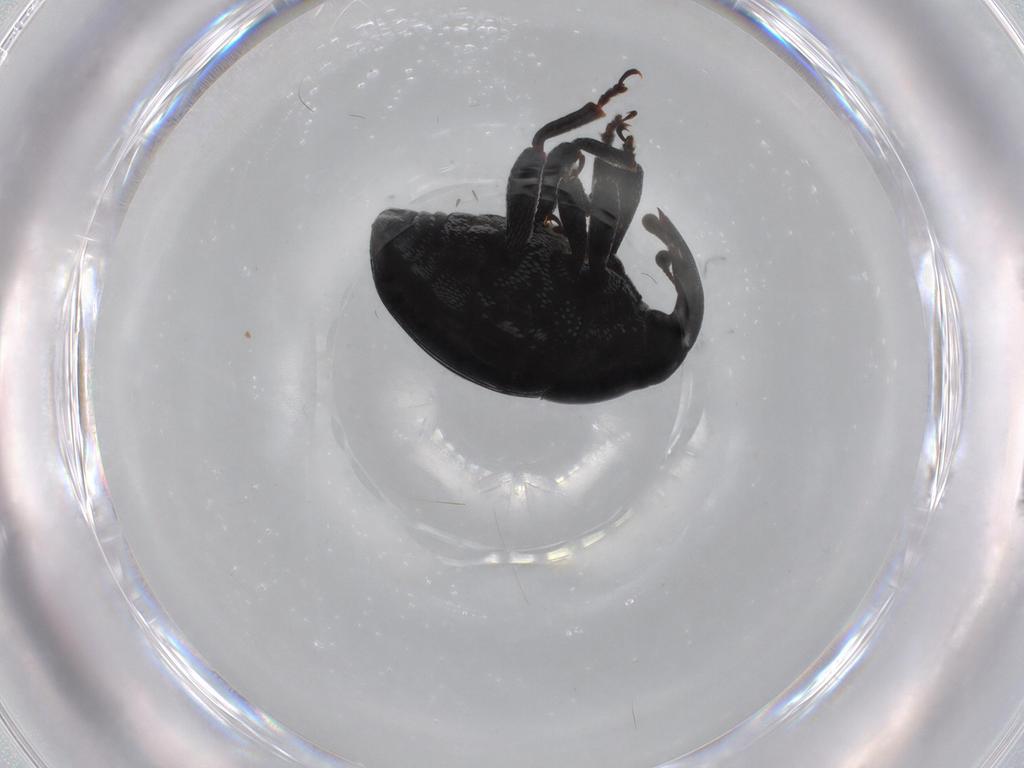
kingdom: Animalia
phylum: Arthropoda
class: Insecta
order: Coleoptera
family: Curculionidae
